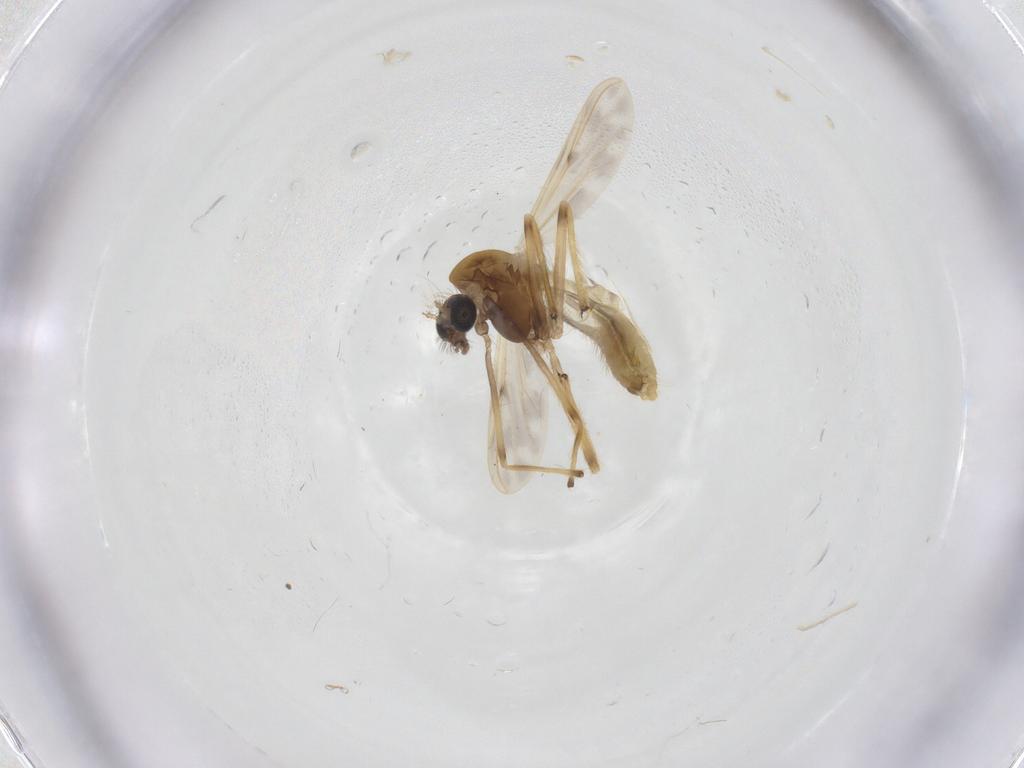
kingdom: Animalia
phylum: Arthropoda
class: Insecta
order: Diptera
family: Chironomidae
